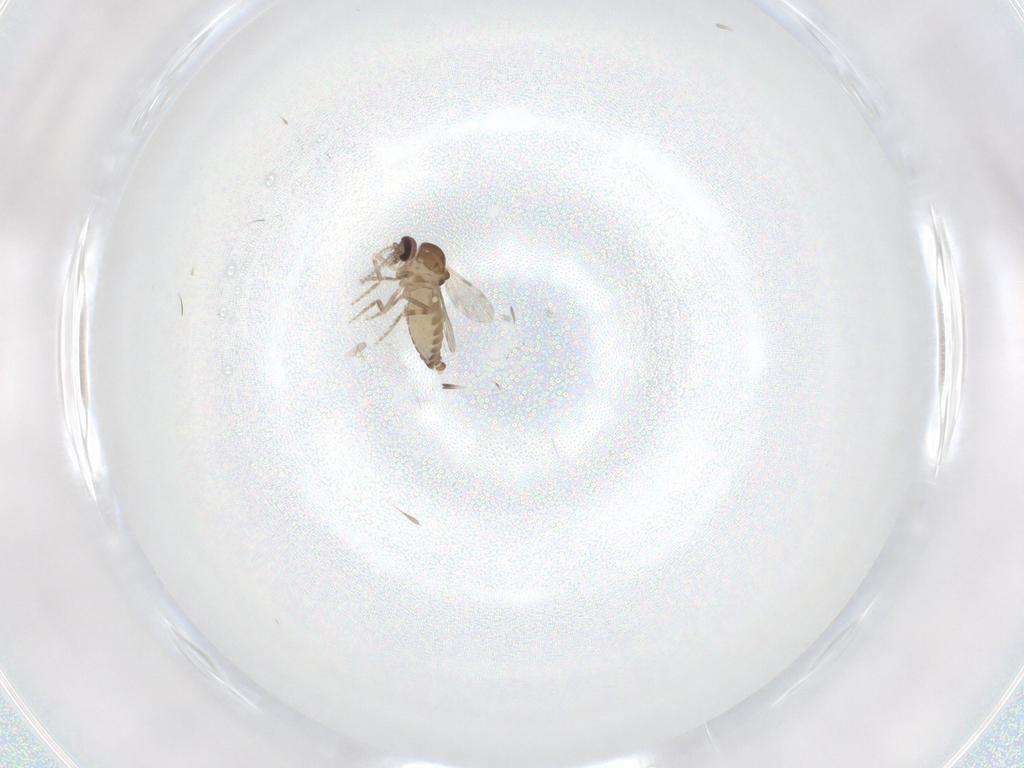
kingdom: Animalia
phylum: Arthropoda
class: Insecta
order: Diptera
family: Ceratopogonidae
